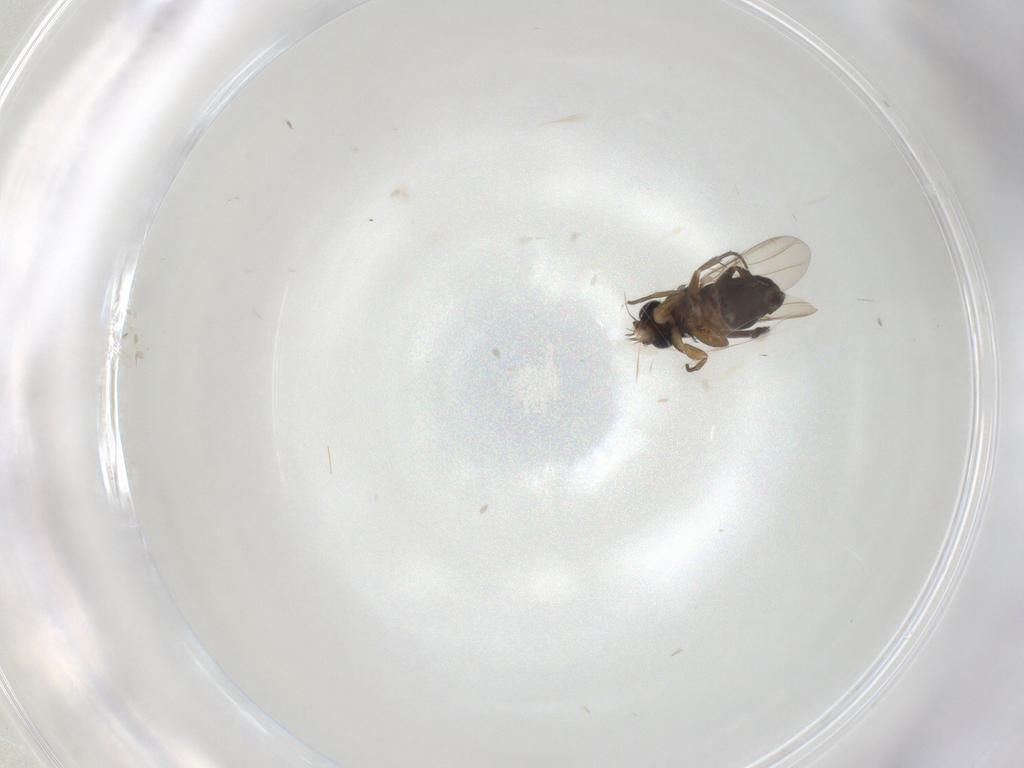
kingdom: Animalia
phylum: Arthropoda
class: Insecta
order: Diptera
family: Phoridae
